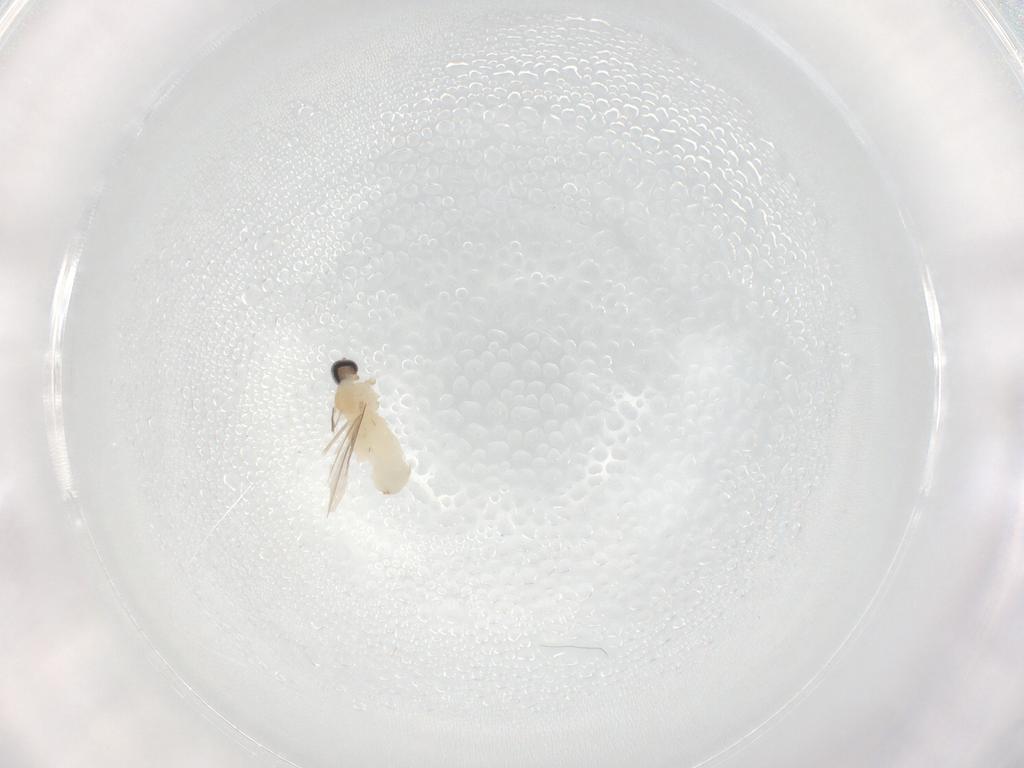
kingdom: Animalia
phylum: Arthropoda
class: Insecta
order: Diptera
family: Cecidomyiidae
